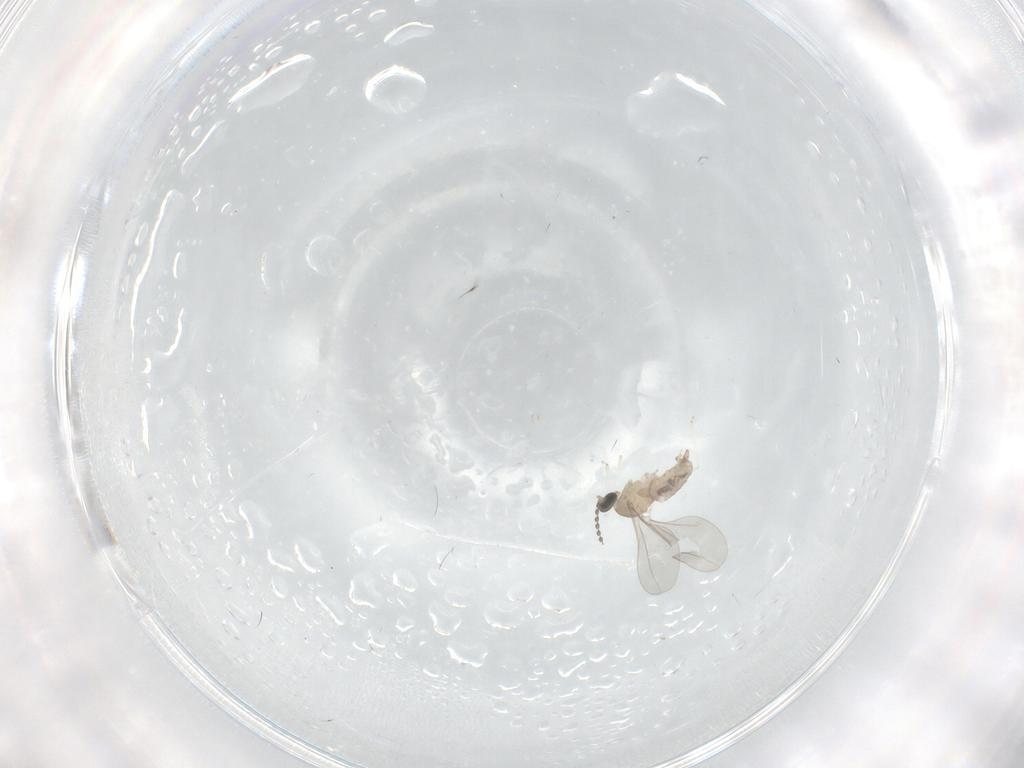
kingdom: Animalia
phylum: Arthropoda
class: Insecta
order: Diptera
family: Cecidomyiidae
